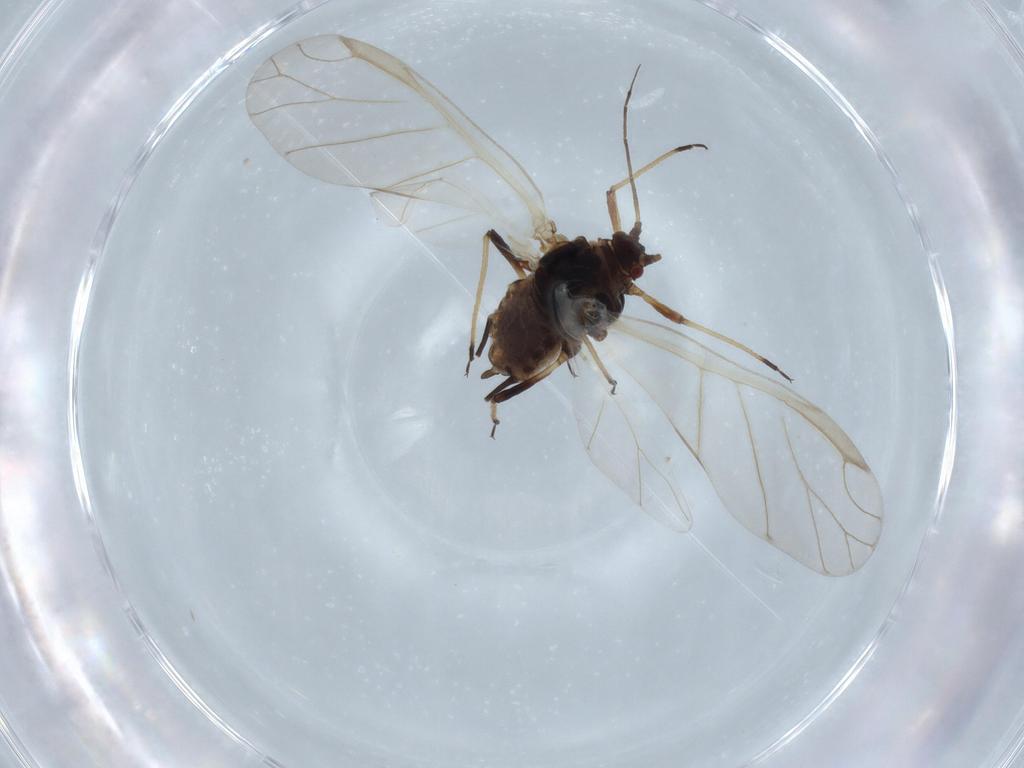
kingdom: Animalia
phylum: Arthropoda
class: Insecta
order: Hemiptera
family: Aphididae
